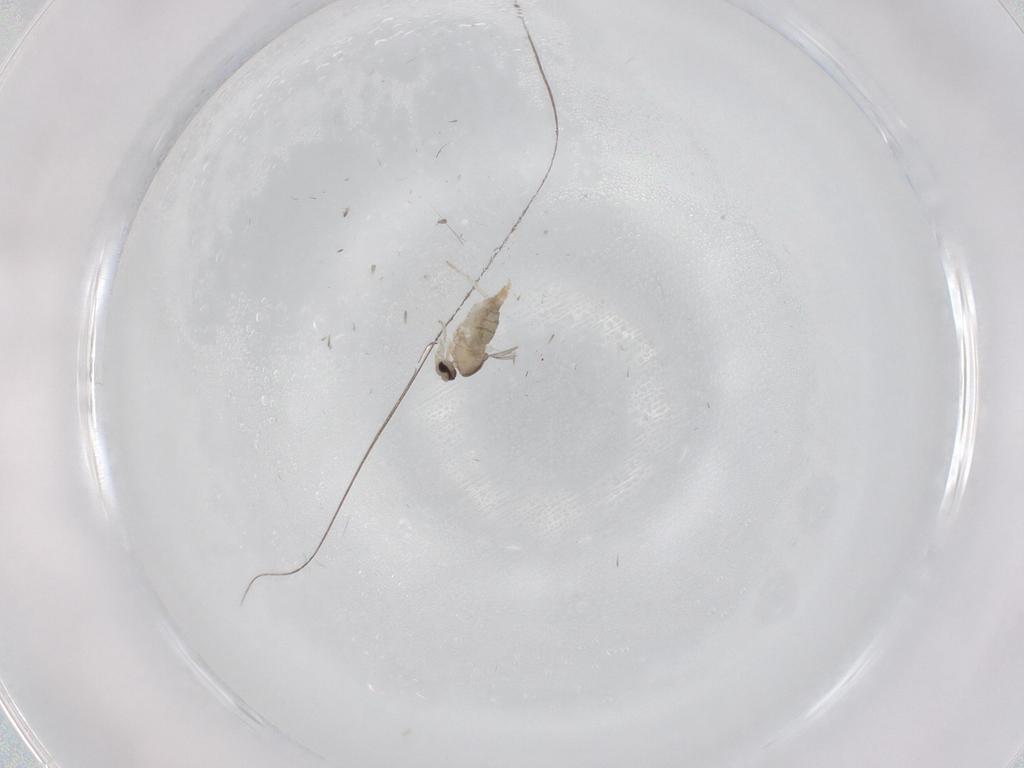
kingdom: Animalia
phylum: Arthropoda
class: Insecta
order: Diptera
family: Cecidomyiidae
